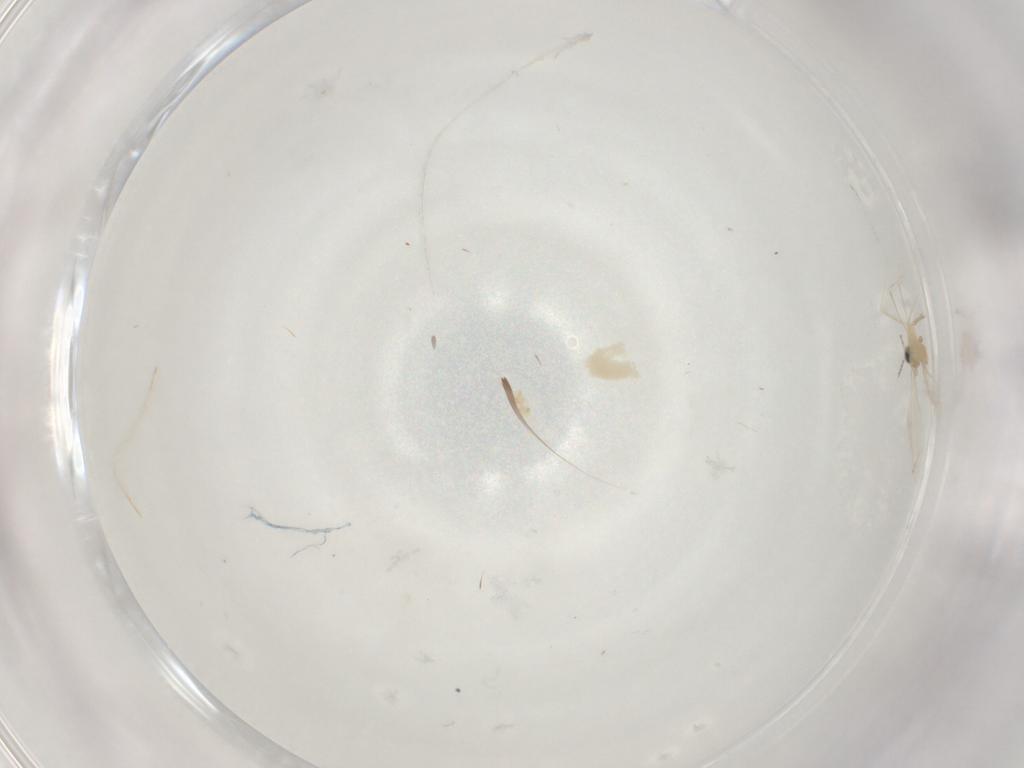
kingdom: Animalia
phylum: Arthropoda
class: Insecta
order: Diptera
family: Cecidomyiidae
